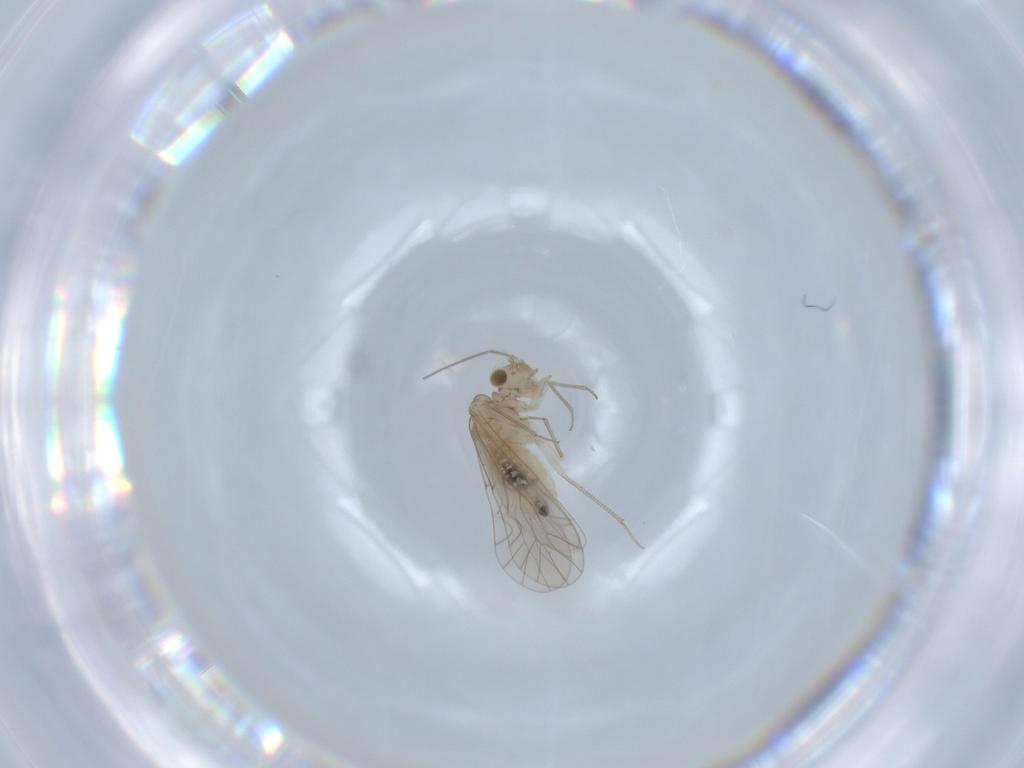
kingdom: Animalia
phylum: Arthropoda
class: Insecta
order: Psocodea
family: Lachesillidae
